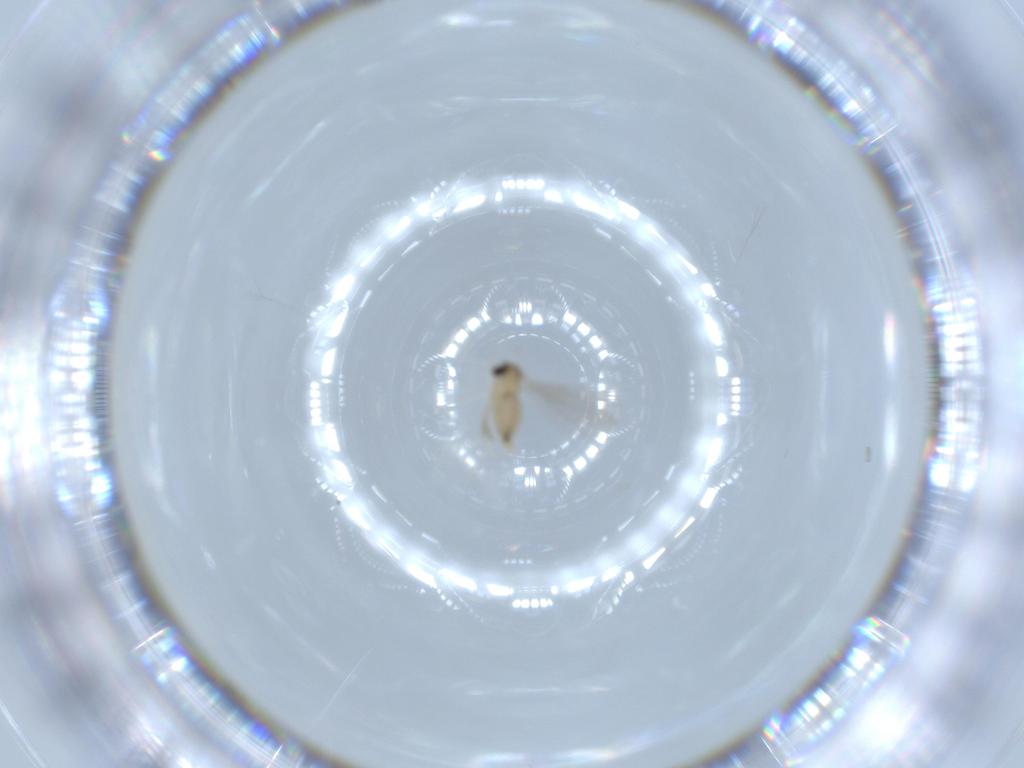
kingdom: Animalia
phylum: Arthropoda
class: Insecta
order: Diptera
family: Cecidomyiidae
